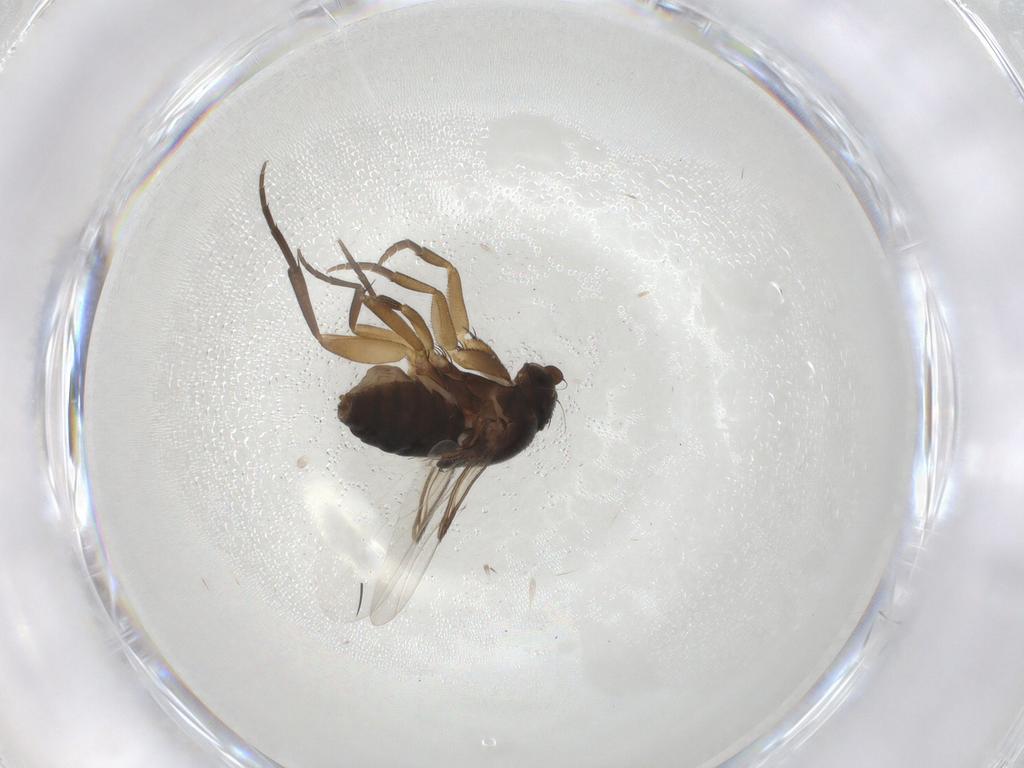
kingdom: Animalia
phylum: Arthropoda
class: Insecta
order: Diptera
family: Phoridae
